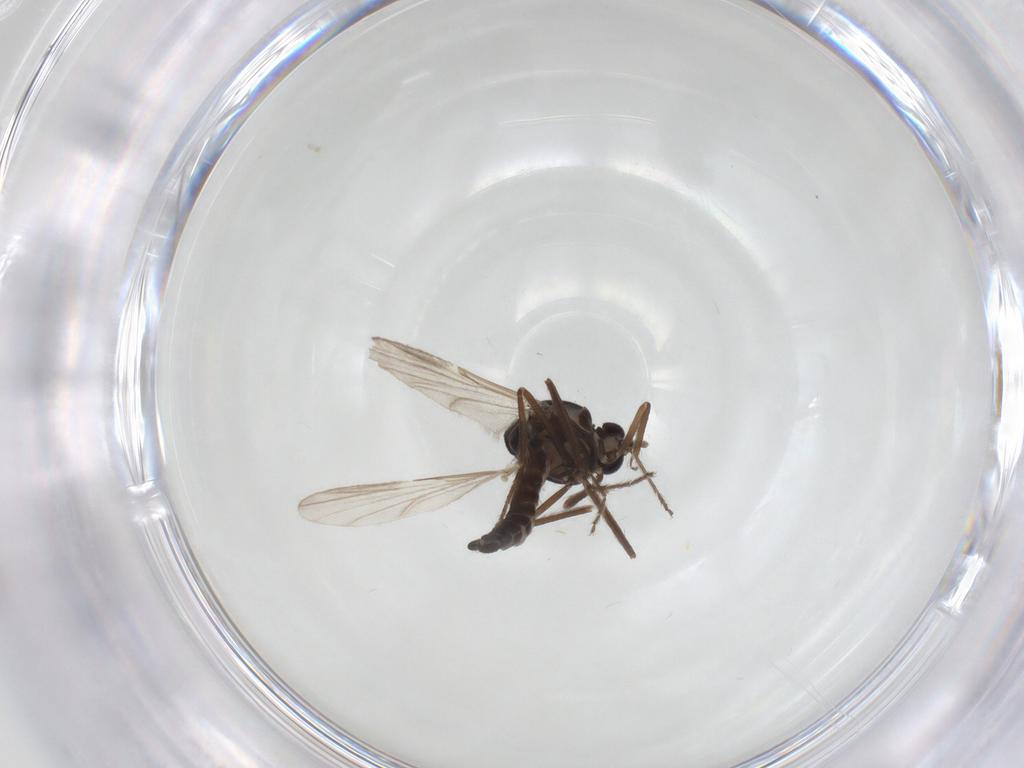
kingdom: Animalia
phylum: Arthropoda
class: Insecta
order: Diptera
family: Ceratopogonidae
